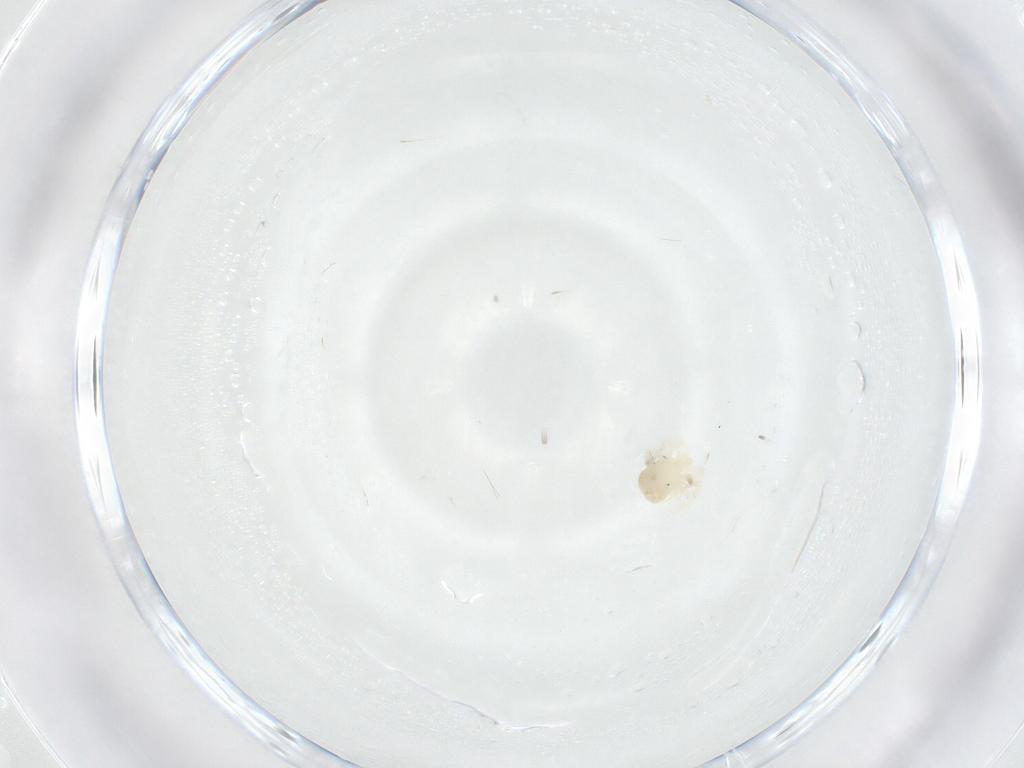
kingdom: Animalia
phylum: Arthropoda
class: Arachnida
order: Trombidiformes
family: Anystidae
